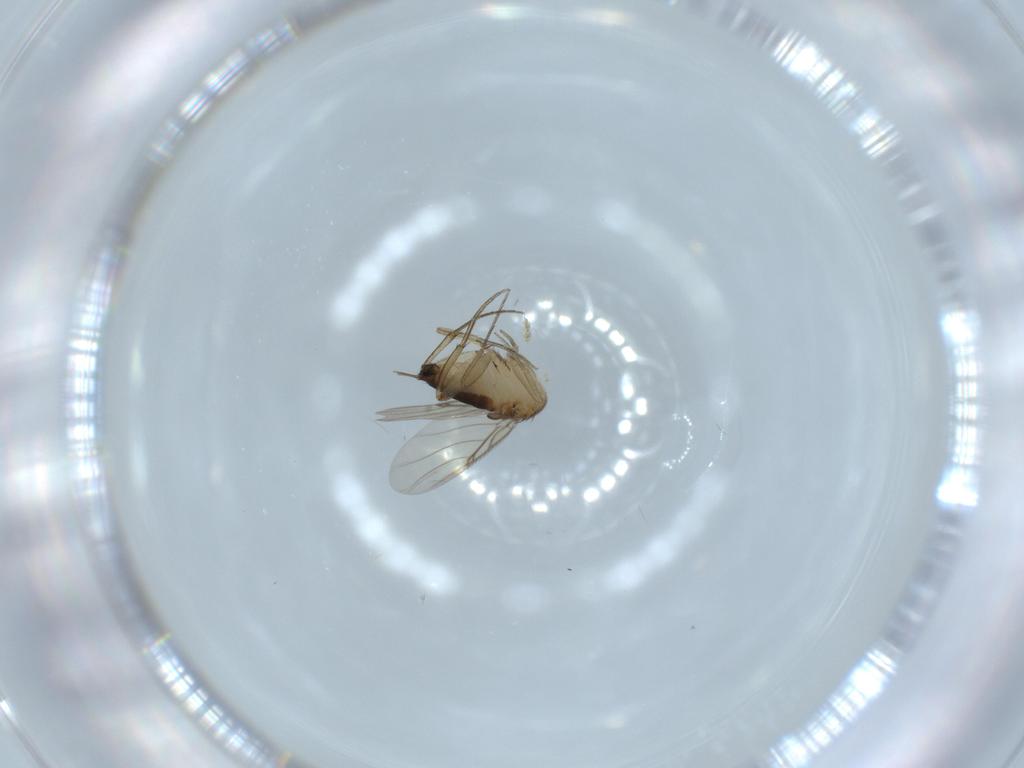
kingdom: Animalia
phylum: Arthropoda
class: Insecta
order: Diptera
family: Phoridae
